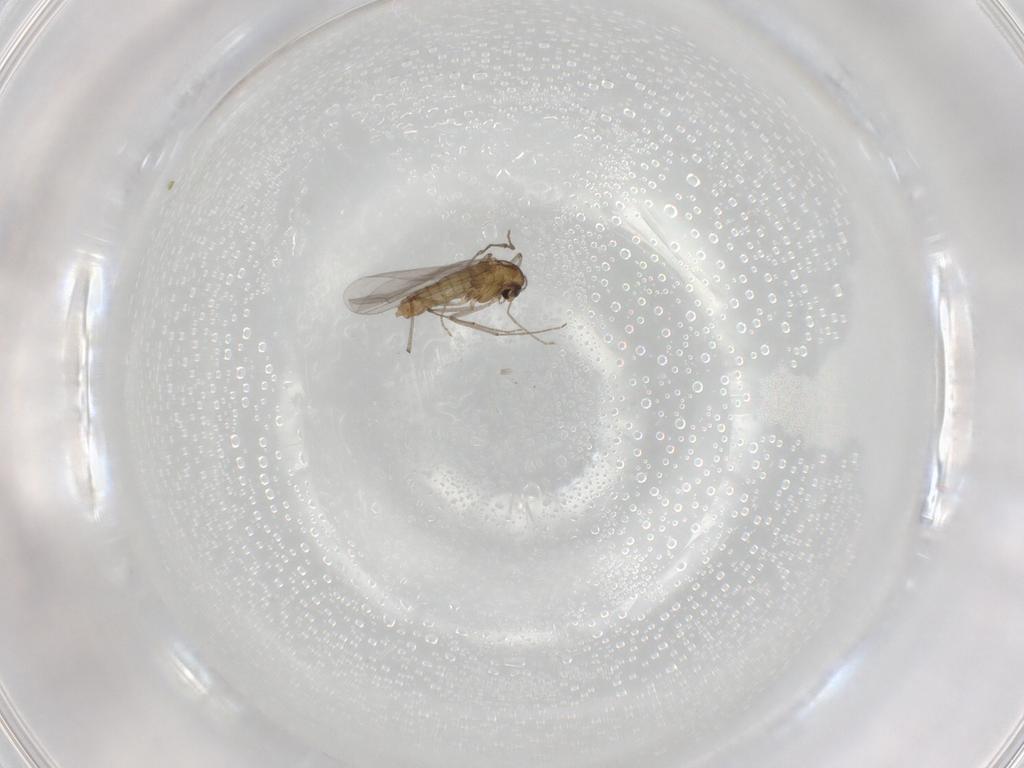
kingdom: Animalia
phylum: Arthropoda
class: Insecta
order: Diptera
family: Chironomidae
